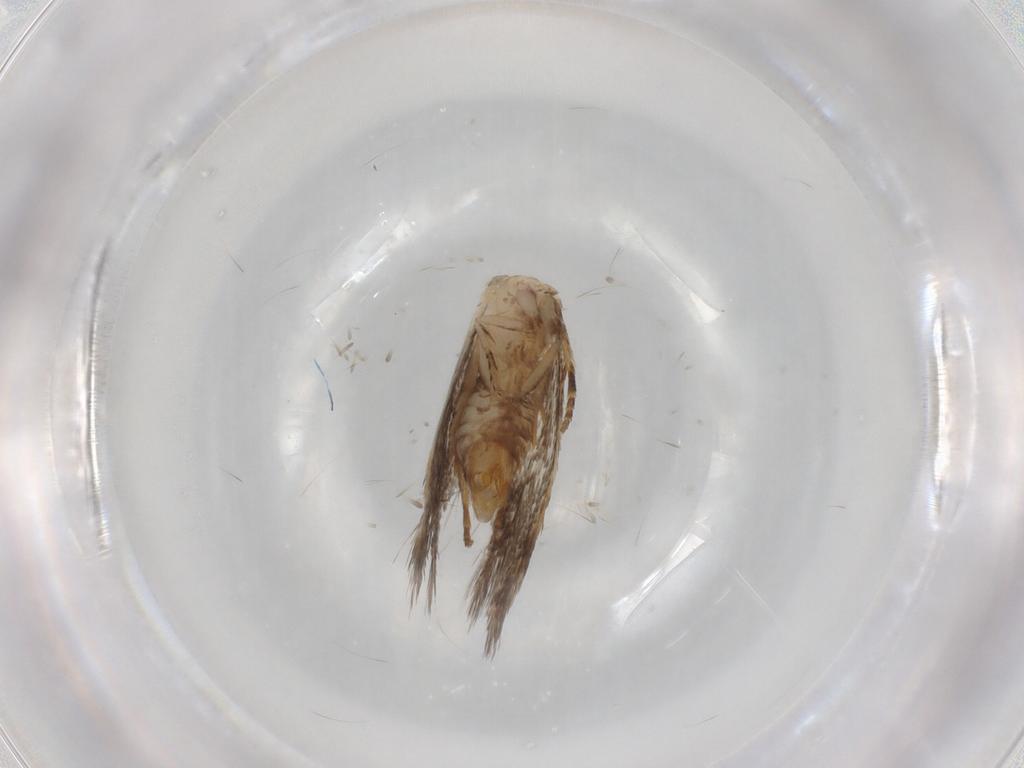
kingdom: Animalia
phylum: Arthropoda
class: Insecta
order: Lepidoptera
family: Tineidae
